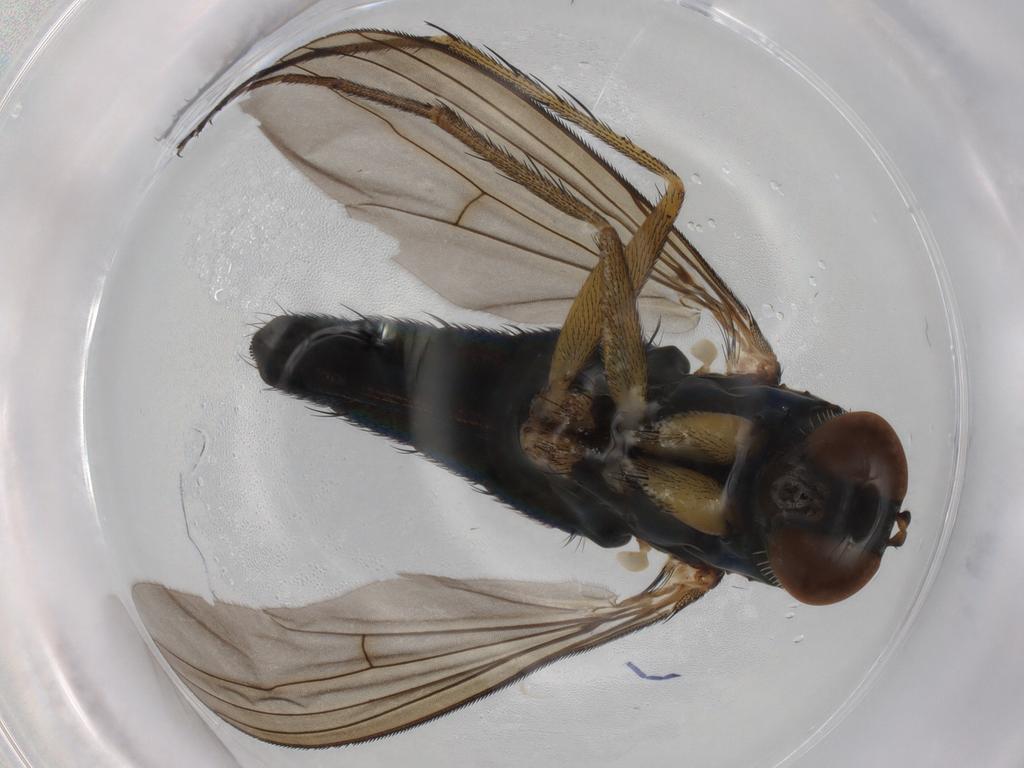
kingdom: Animalia
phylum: Arthropoda
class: Insecta
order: Diptera
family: Dolichopodidae
